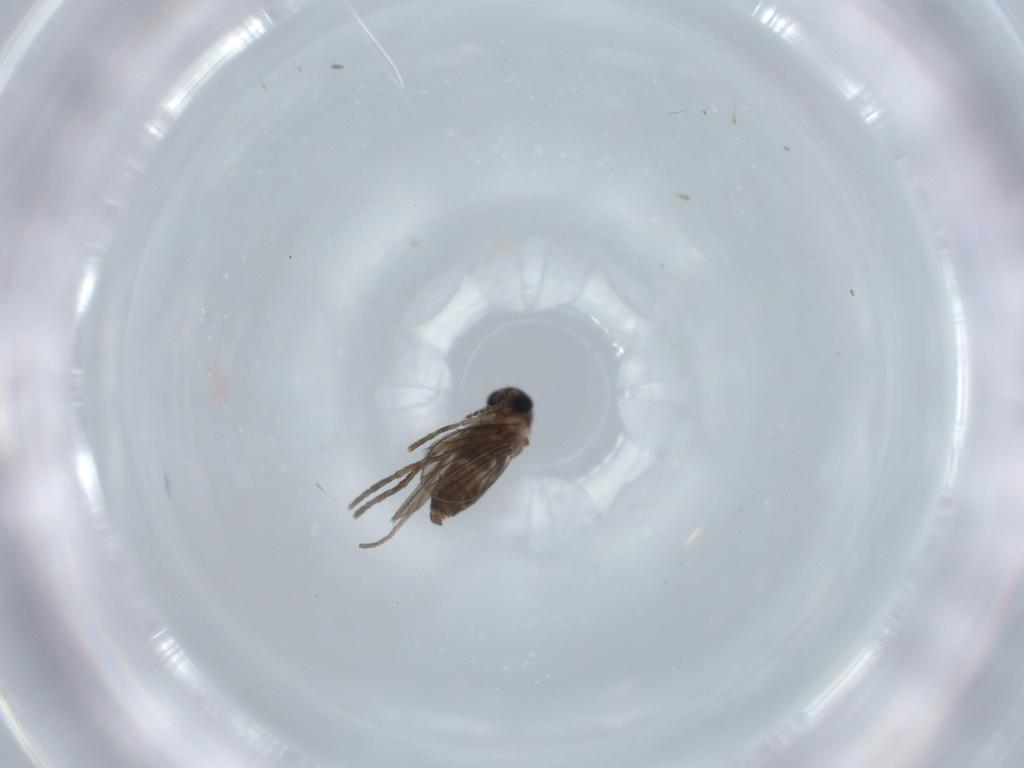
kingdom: Animalia
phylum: Arthropoda
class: Insecta
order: Diptera
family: Psychodidae
